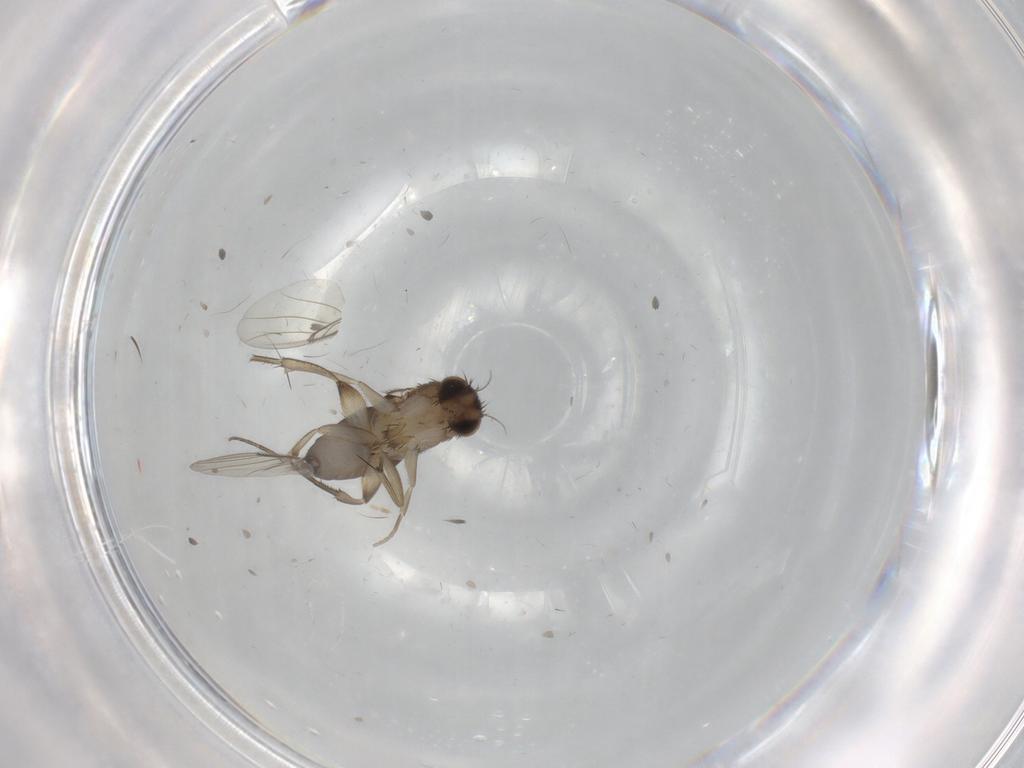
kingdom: Animalia
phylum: Arthropoda
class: Insecta
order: Diptera
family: Phoridae
